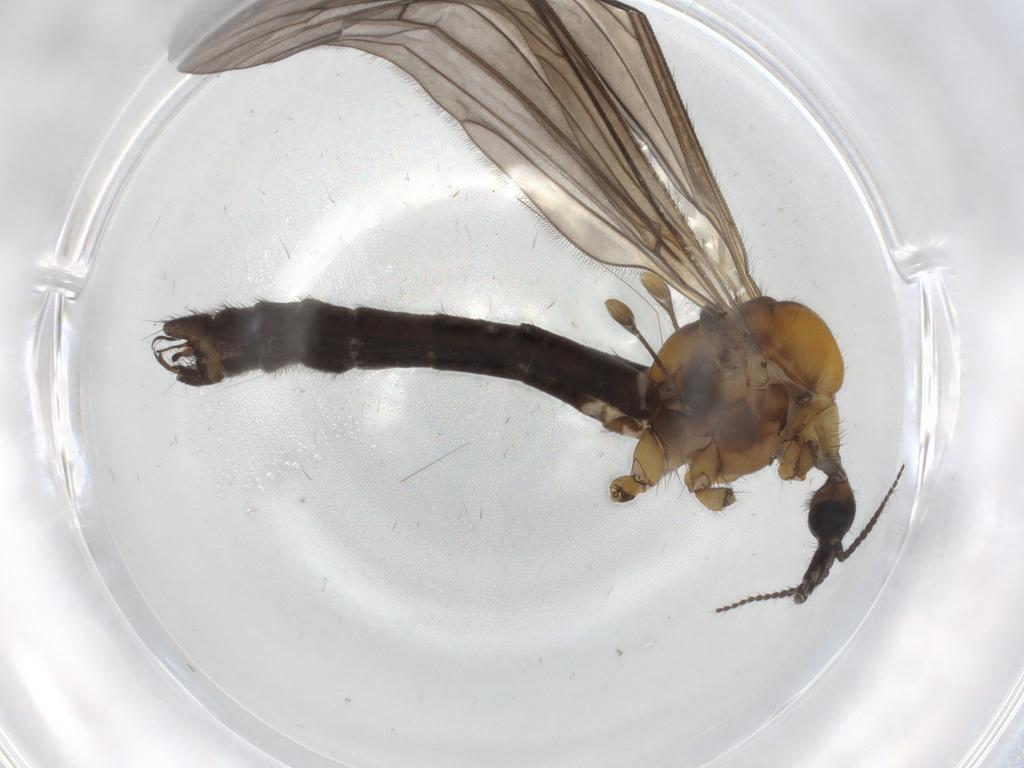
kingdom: Animalia
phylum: Arthropoda
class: Insecta
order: Diptera
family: Limoniidae
